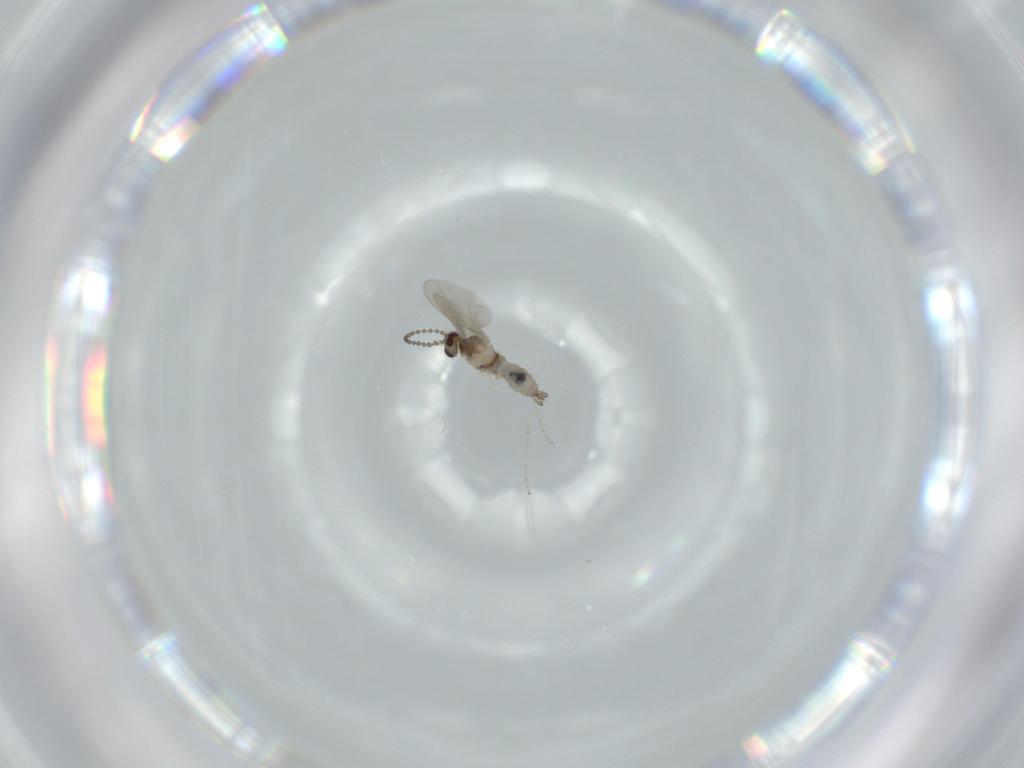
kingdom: Animalia
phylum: Arthropoda
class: Insecta
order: Diptera
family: Cecidomyiidae
